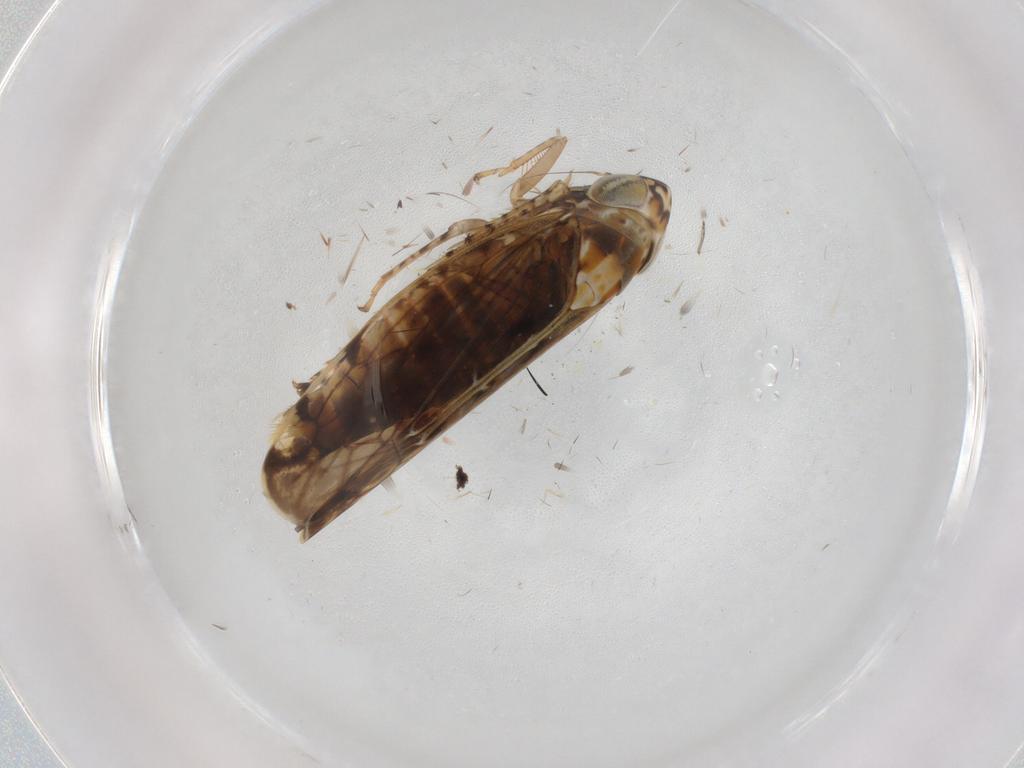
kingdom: Animalia
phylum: Arthropoda
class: Insecta
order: Hemiptera
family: Cicadellidae
